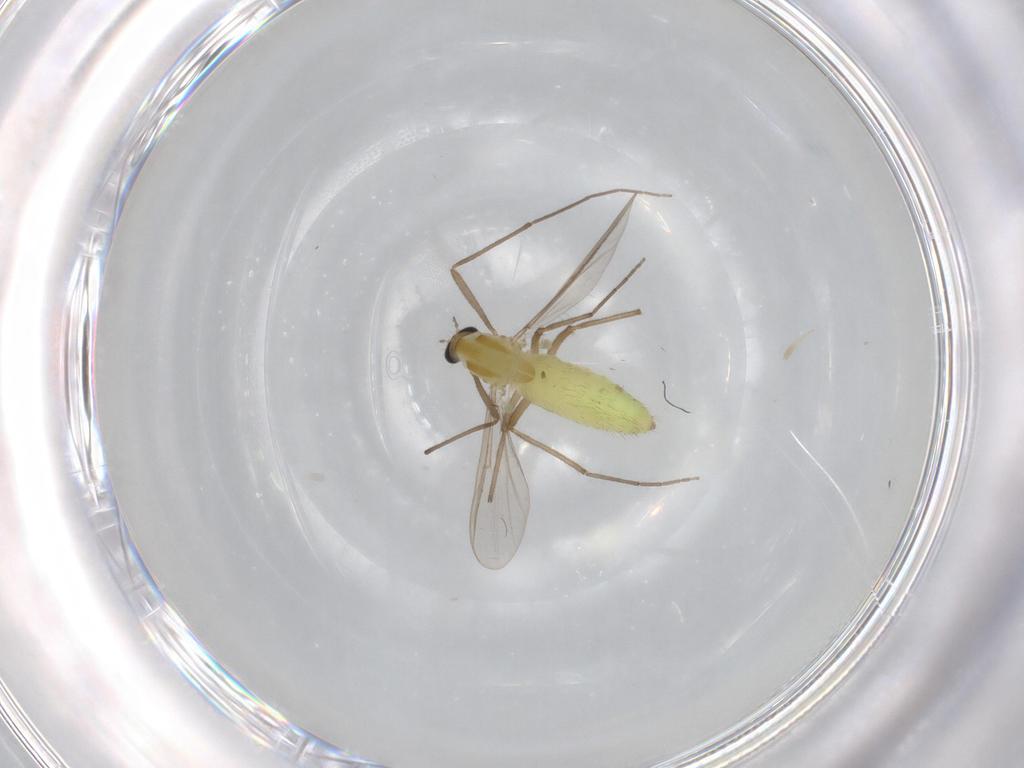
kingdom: Animalia
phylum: Arthropoda
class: Insecta
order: Diptera
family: Chironomidae
